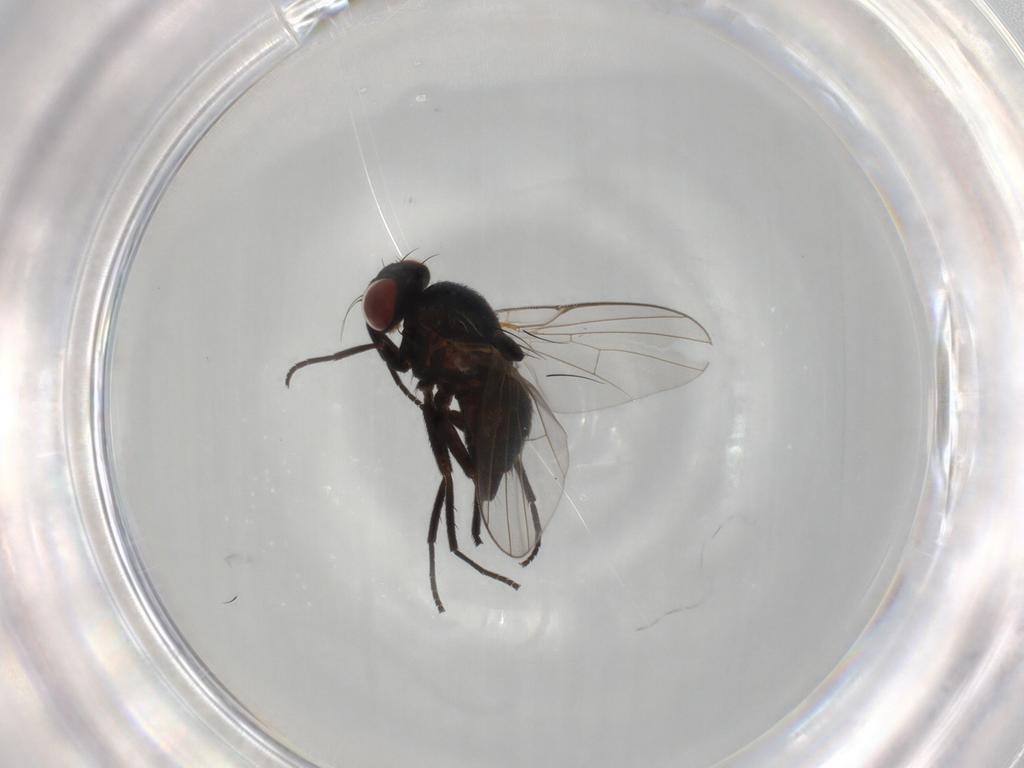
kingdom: Animalia
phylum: Arthropoda
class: Insecta
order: Diptera
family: Agromyzidae
